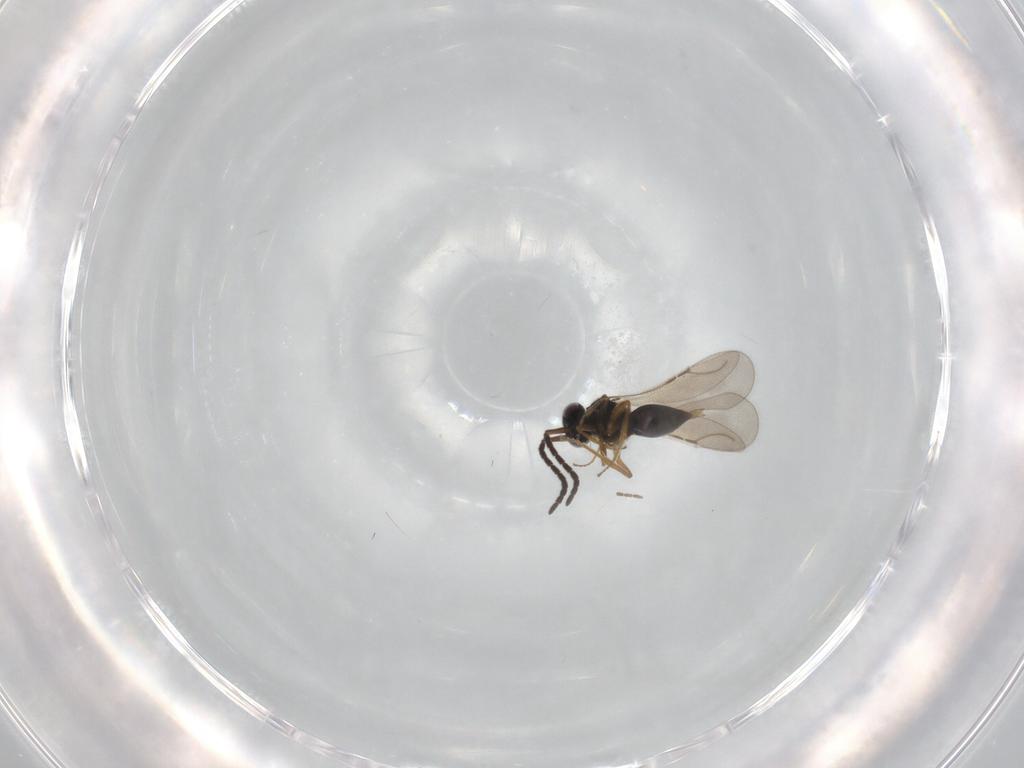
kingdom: Animalia
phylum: Arthropoda
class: Insecta
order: Hymenoptera
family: Ceraphronidae
